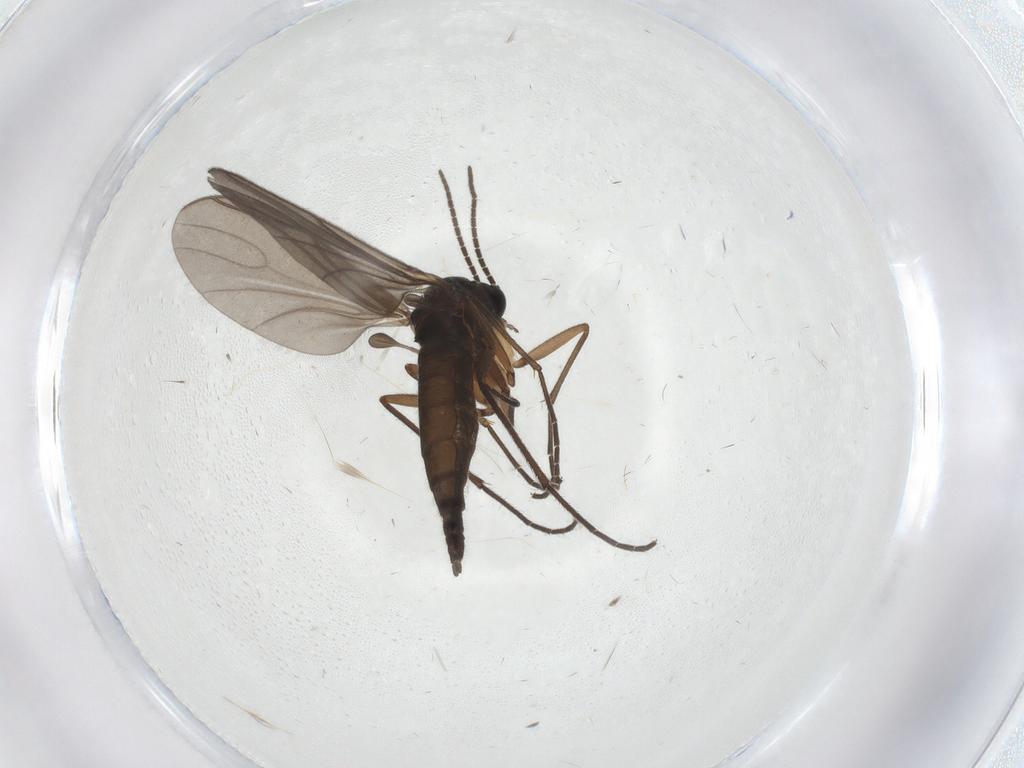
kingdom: Animalia
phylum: Arthropoda
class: Insecta
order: Diptera
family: Sciaridae
